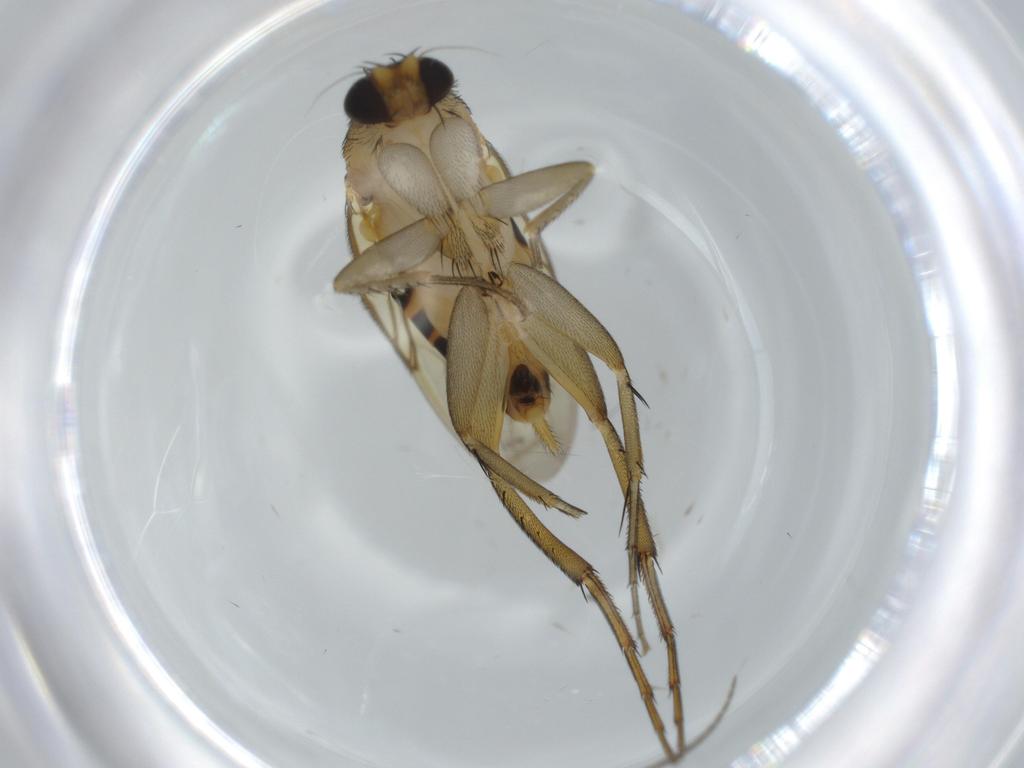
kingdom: Animalia
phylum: Arthropoda
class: Insecta
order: Diptera
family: Phoridae
